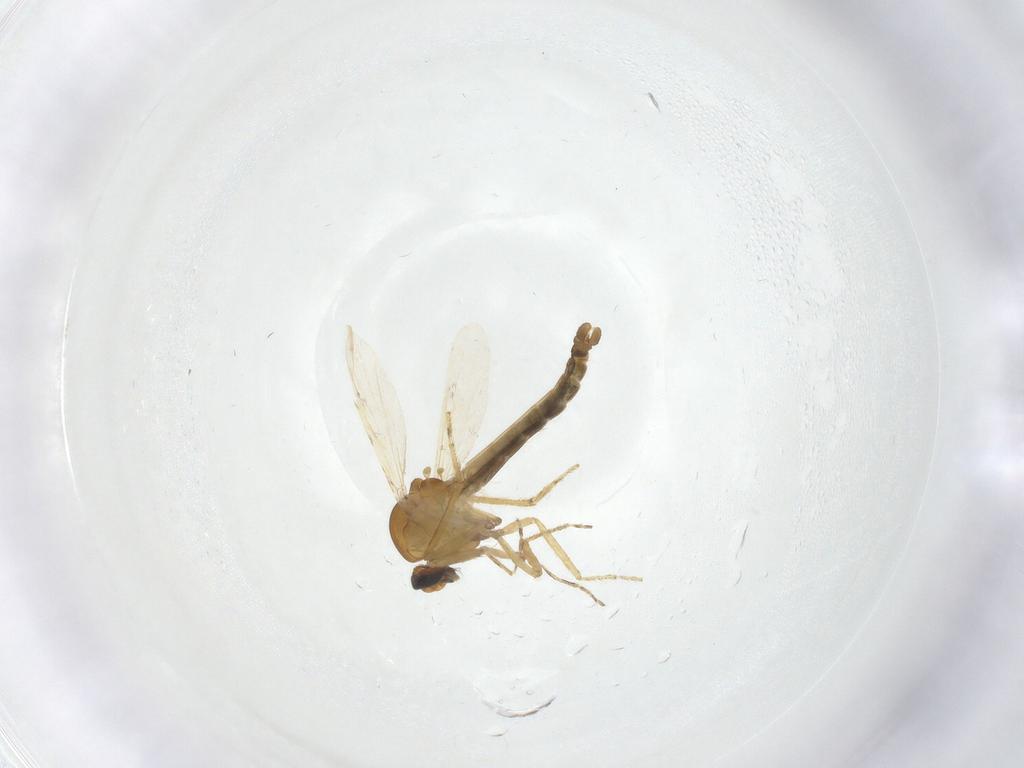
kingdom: Animalia
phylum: Arthropoda
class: Insecta
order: Diptera
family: Ceratopogonidae
